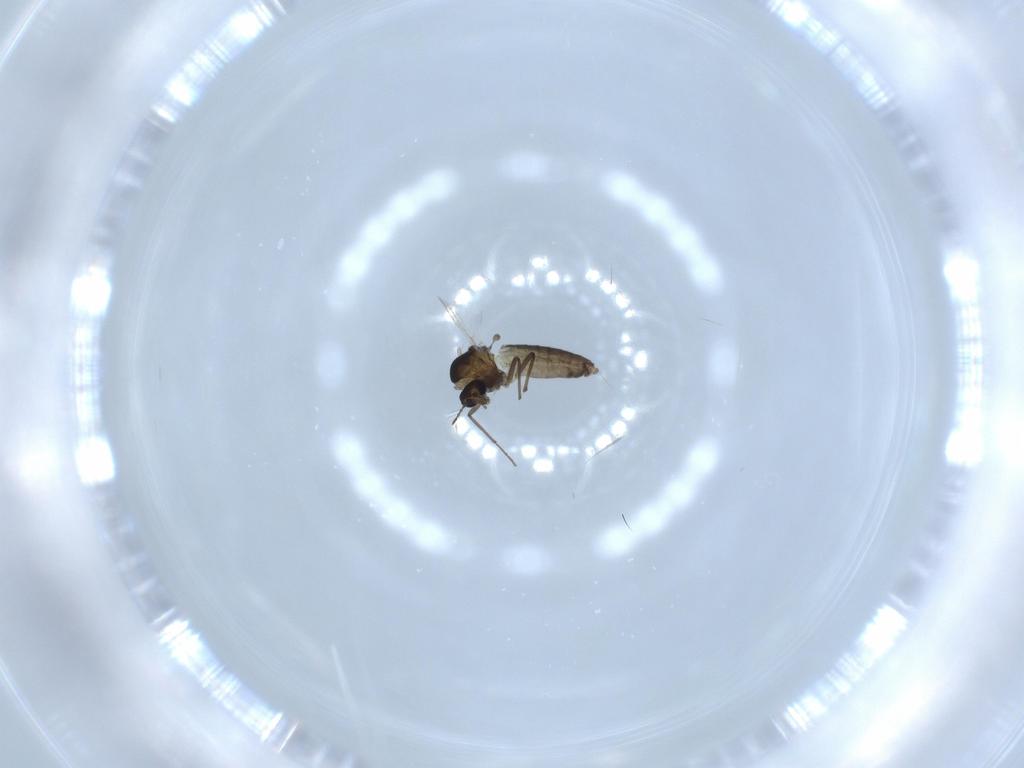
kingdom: Animalia
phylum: Arthropoda
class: Insecta
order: Diptera
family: Chironomidae
